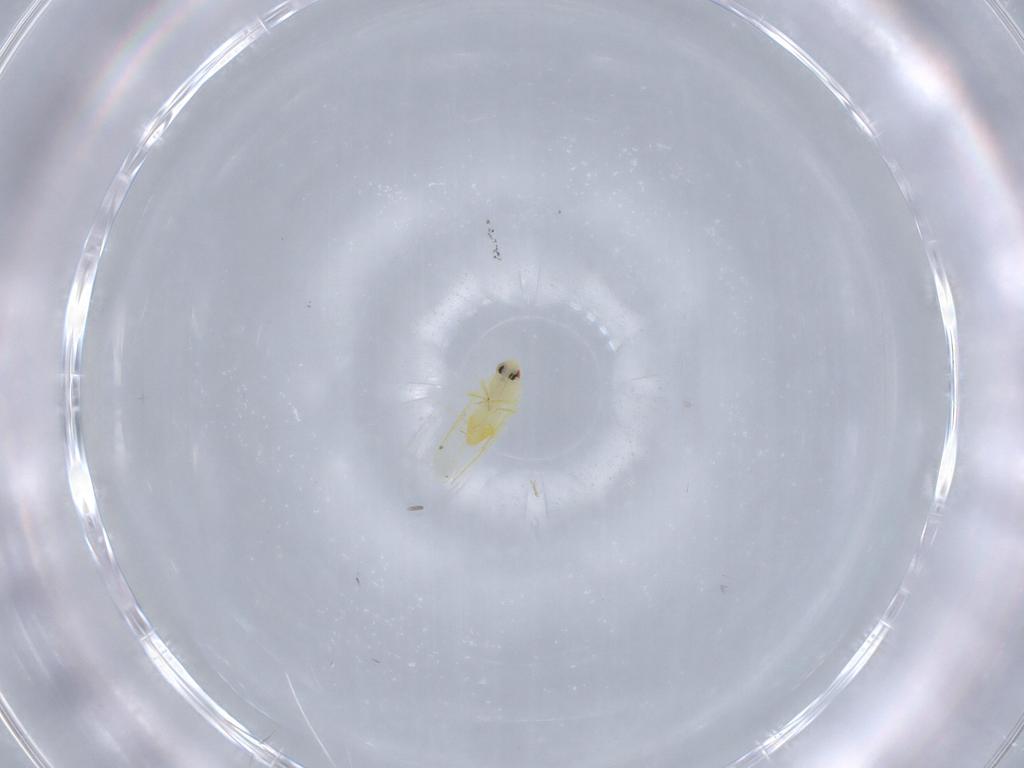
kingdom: Animalia
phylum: Arthropoda
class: Insecta
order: Hemiptera
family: Aleyrodidae
